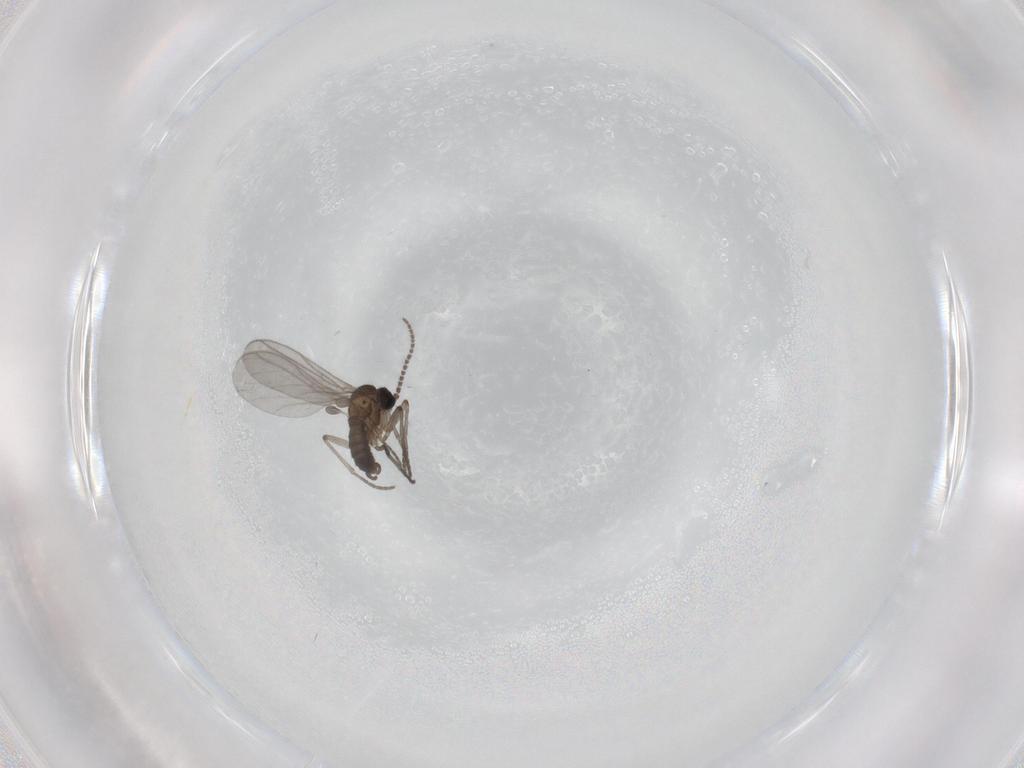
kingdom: Animalia
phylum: Arthropoda
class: Insecta
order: Diptera
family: Sciaridae
